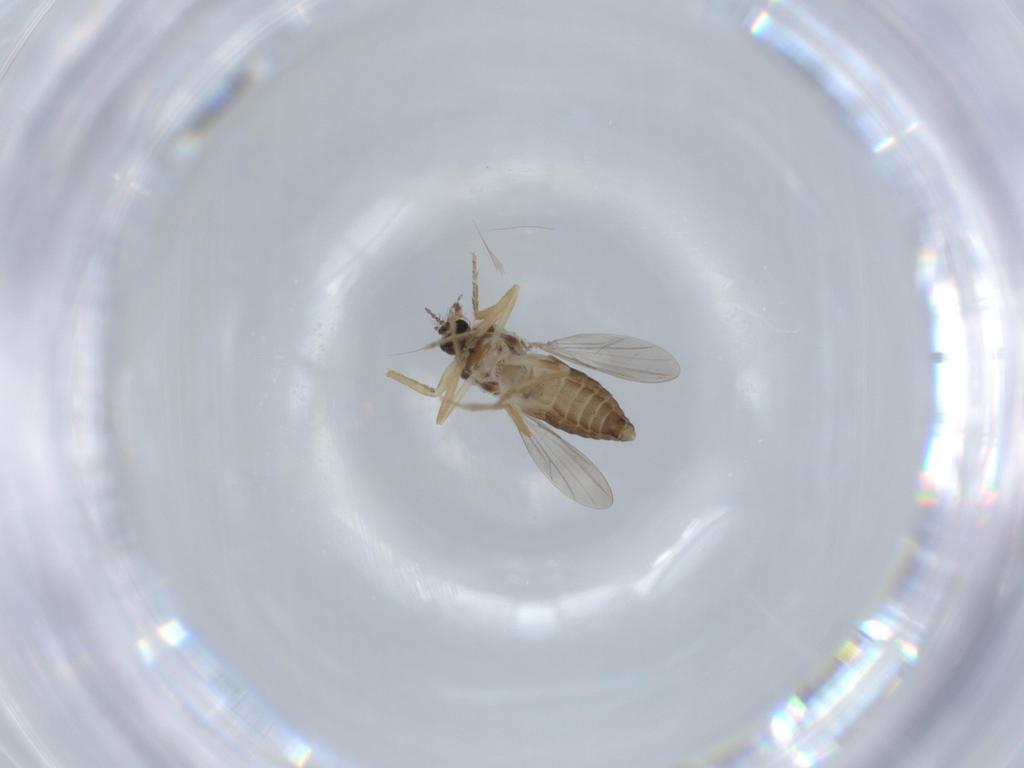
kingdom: Animalia
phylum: Arthropoda
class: Insecta
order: Diptera
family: Ceratopogonidae
